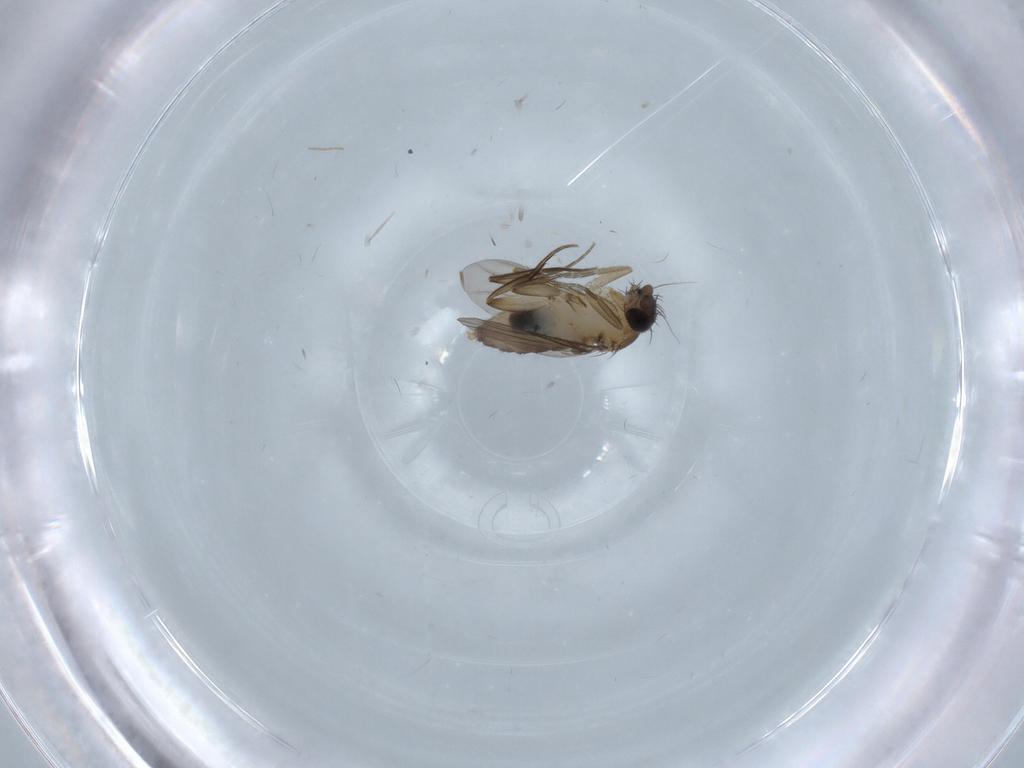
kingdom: Animalia
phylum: Arthropoda
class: Insecta
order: Diptera
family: Phoridae
